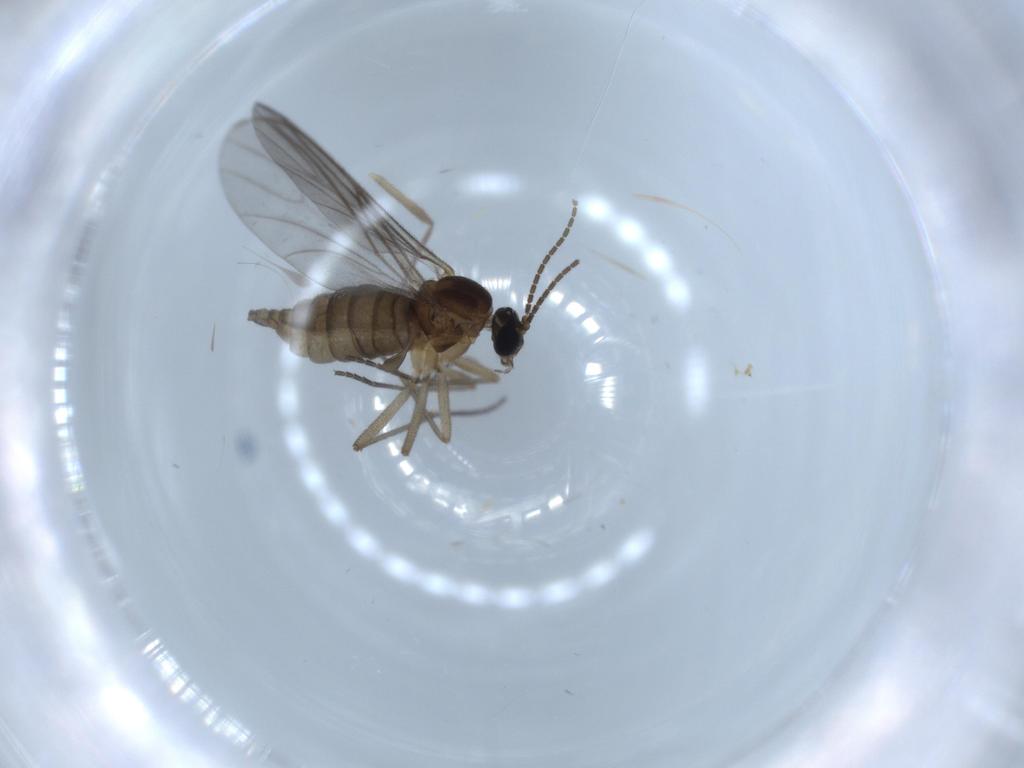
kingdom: Animalia
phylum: Arthropoda
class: Insecta
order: Diptera
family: Sciaridae
